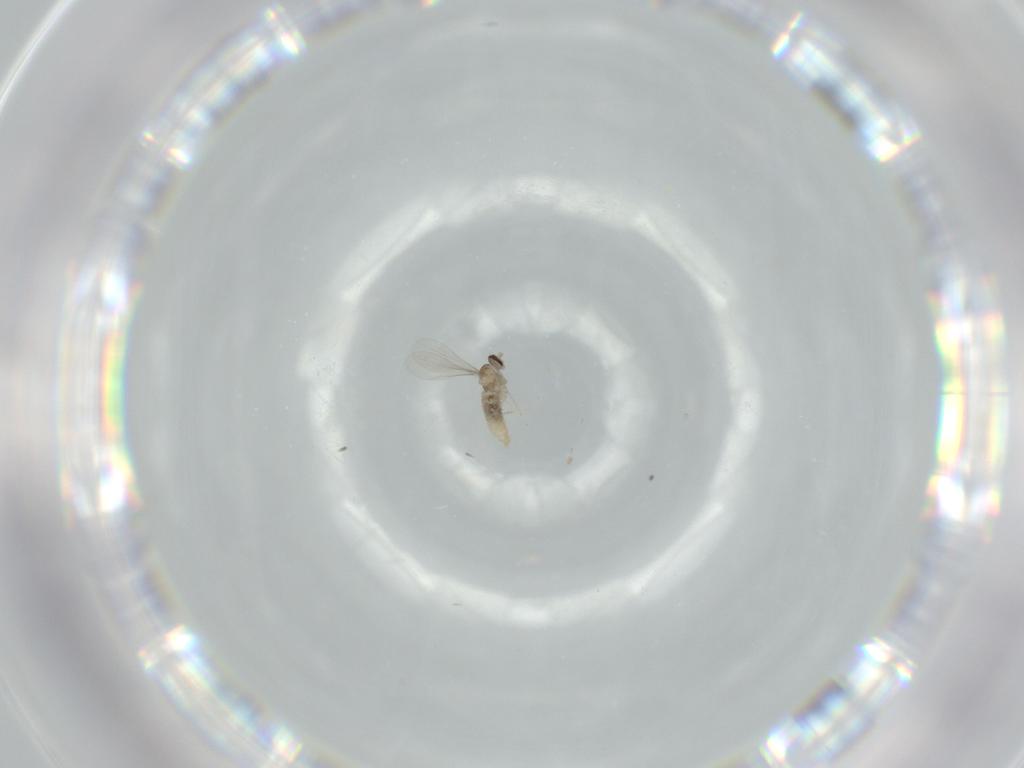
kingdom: Animalia
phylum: Arthropoda
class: Insecta
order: Diptera
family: Cecidomyiidae
